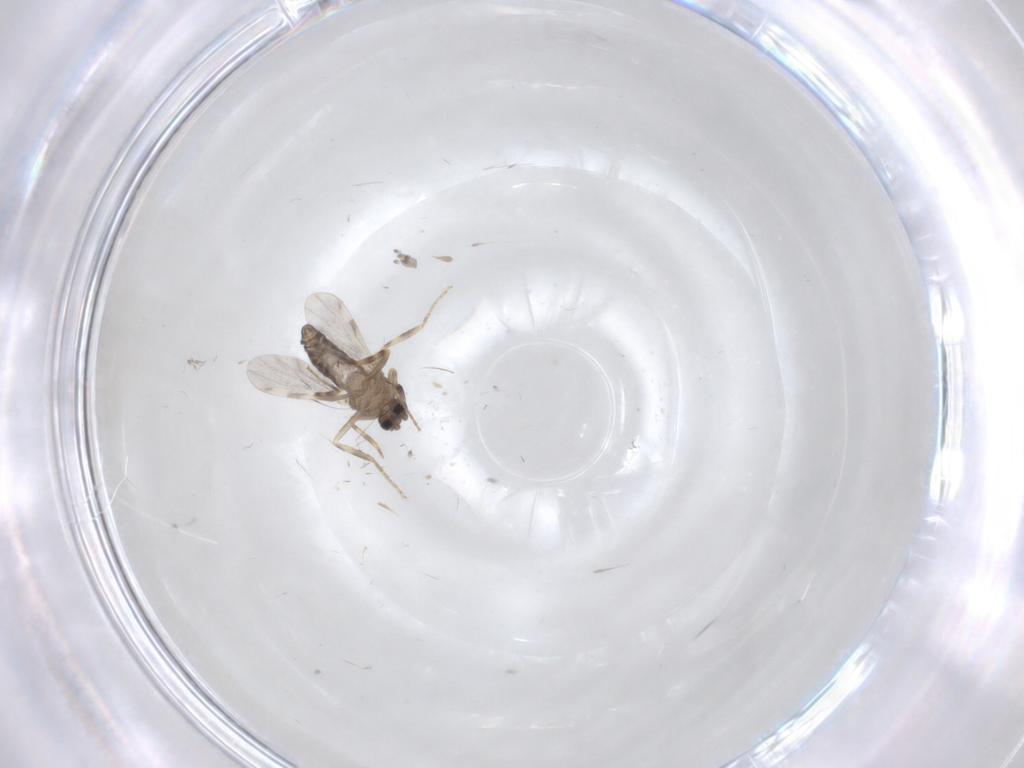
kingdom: Animalia
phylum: Arthropoda
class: Insecta
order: Diptera
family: Ceratopogonidae
